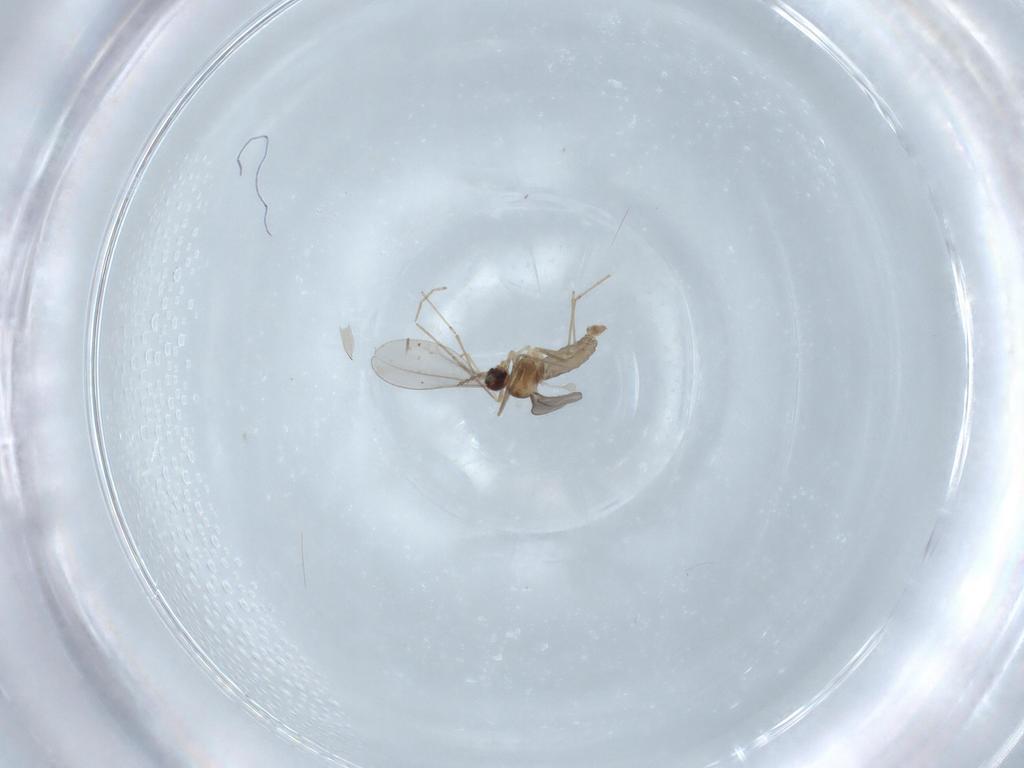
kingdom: Animalia
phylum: Arthropoda
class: Insecta
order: Diptera
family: Chironomidae
